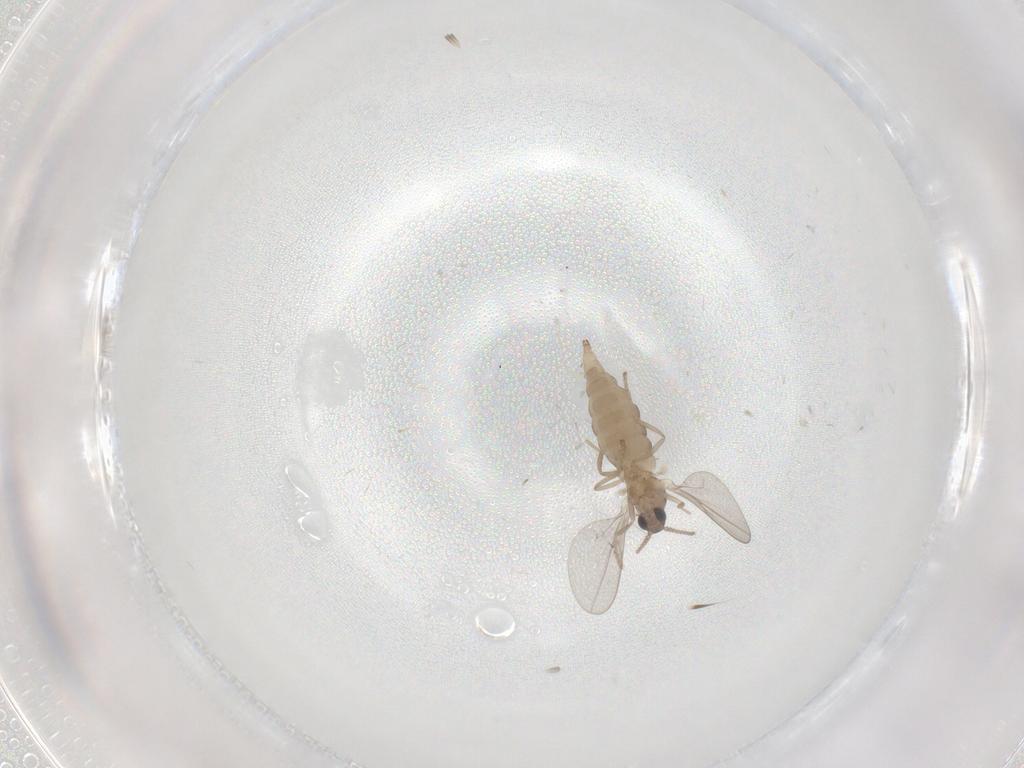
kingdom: Animalia
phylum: Arthropoda
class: Insecta
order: Diptera
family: Cecidomyiidae
